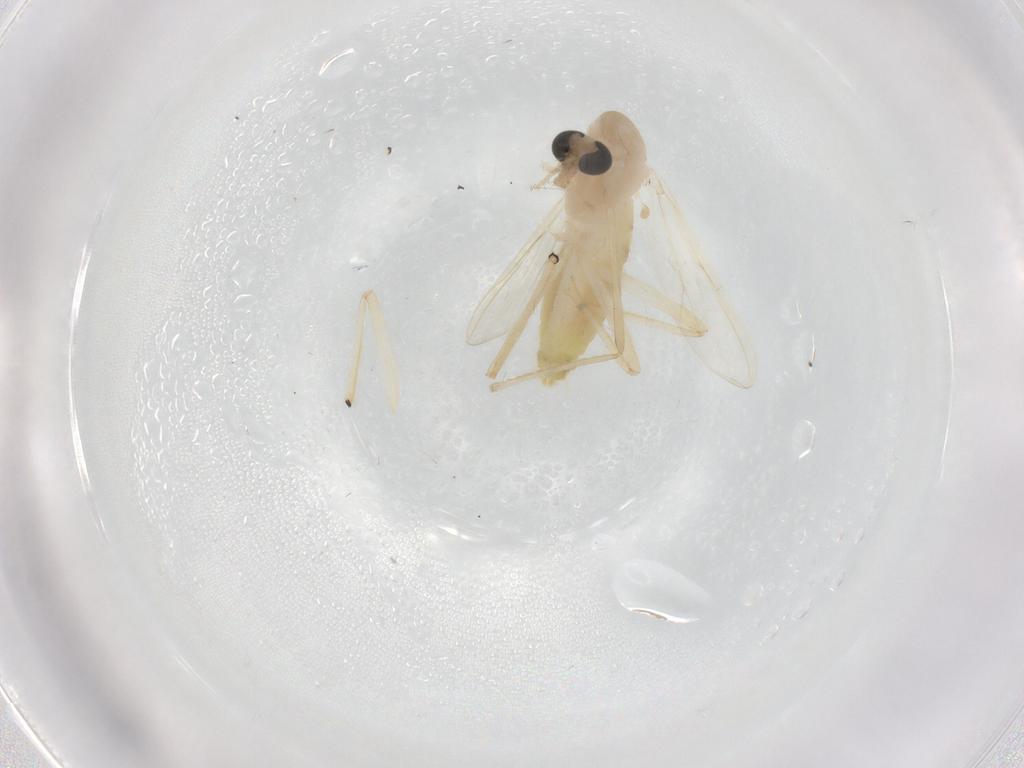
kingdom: Animalia
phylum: Arthropoda
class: Insecta
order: Diptera
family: Chironomidae
